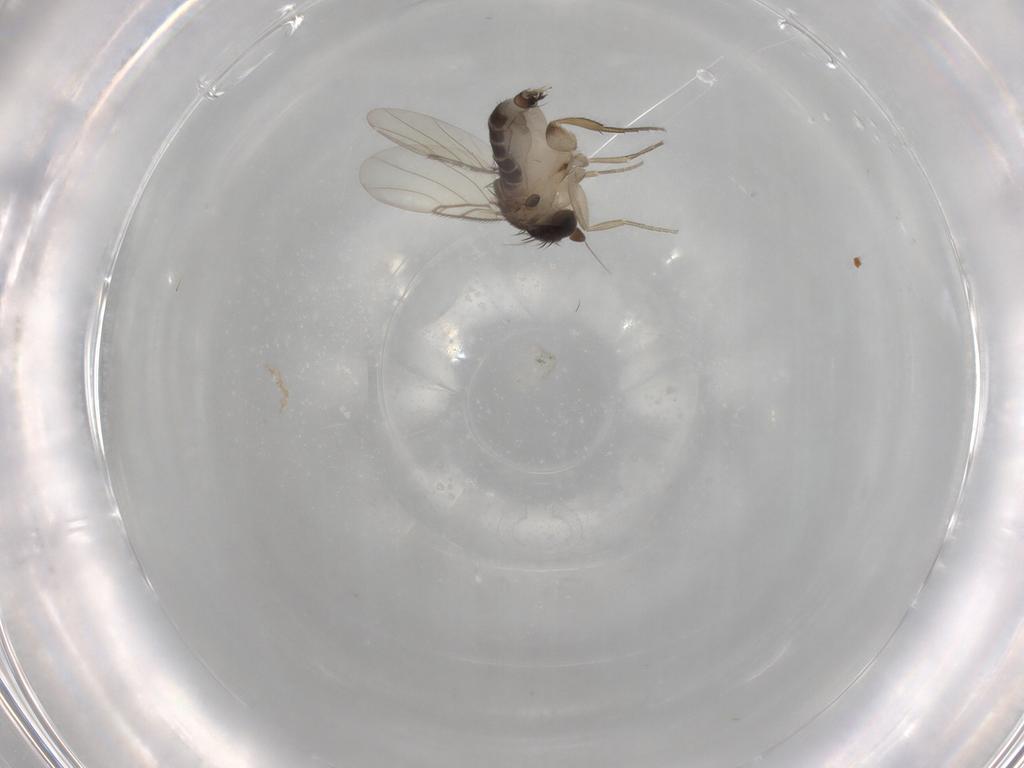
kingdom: Animalia
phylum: Arthropoda
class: Insecta
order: Diptera
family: Phoridae
